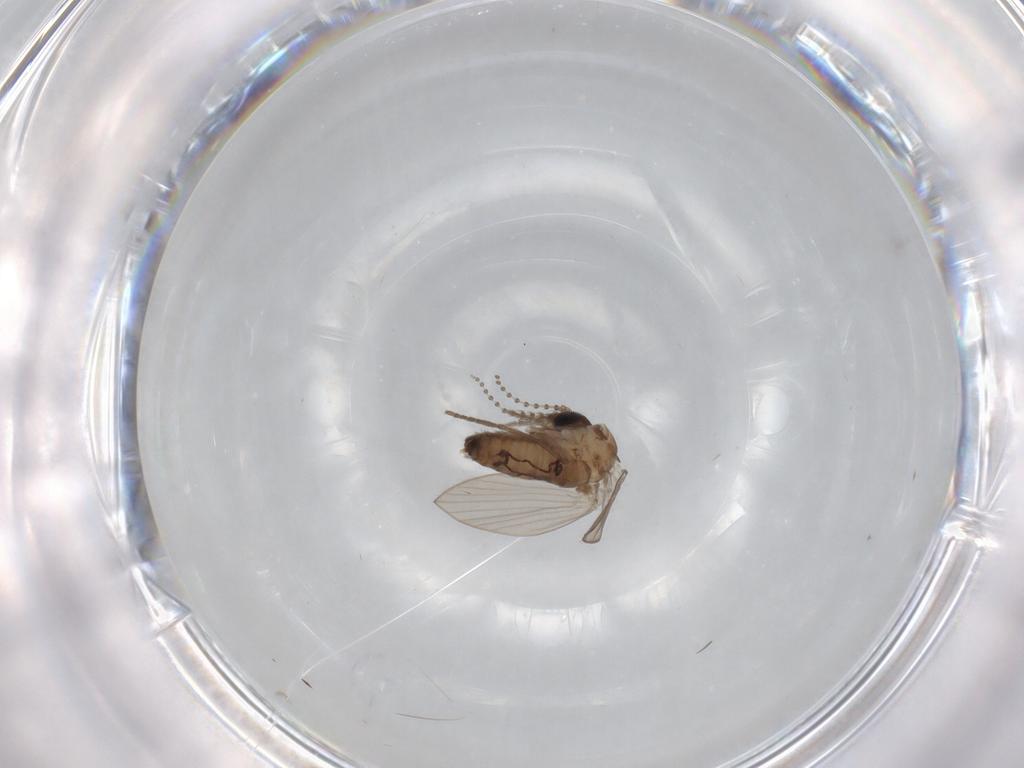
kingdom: Animalia
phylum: Arthropoda
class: Insecta
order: Diptera
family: Psychodidae
